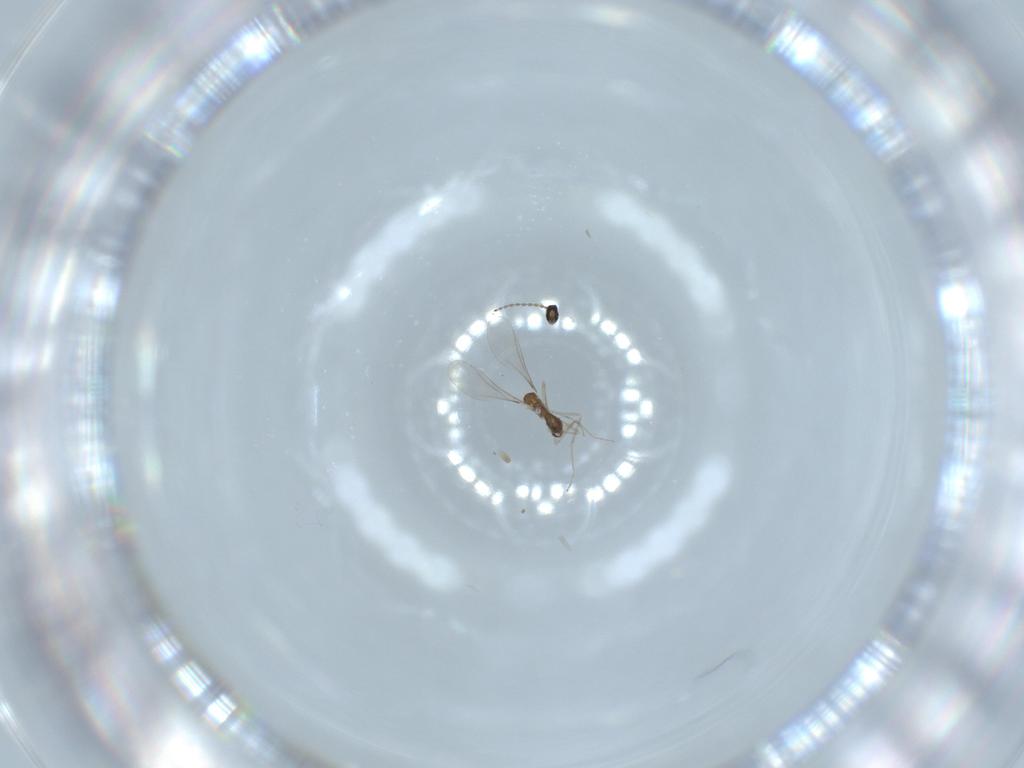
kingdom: Animalia
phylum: Arthropoda
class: Insecta
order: Diptera
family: Cecidomyiidae
